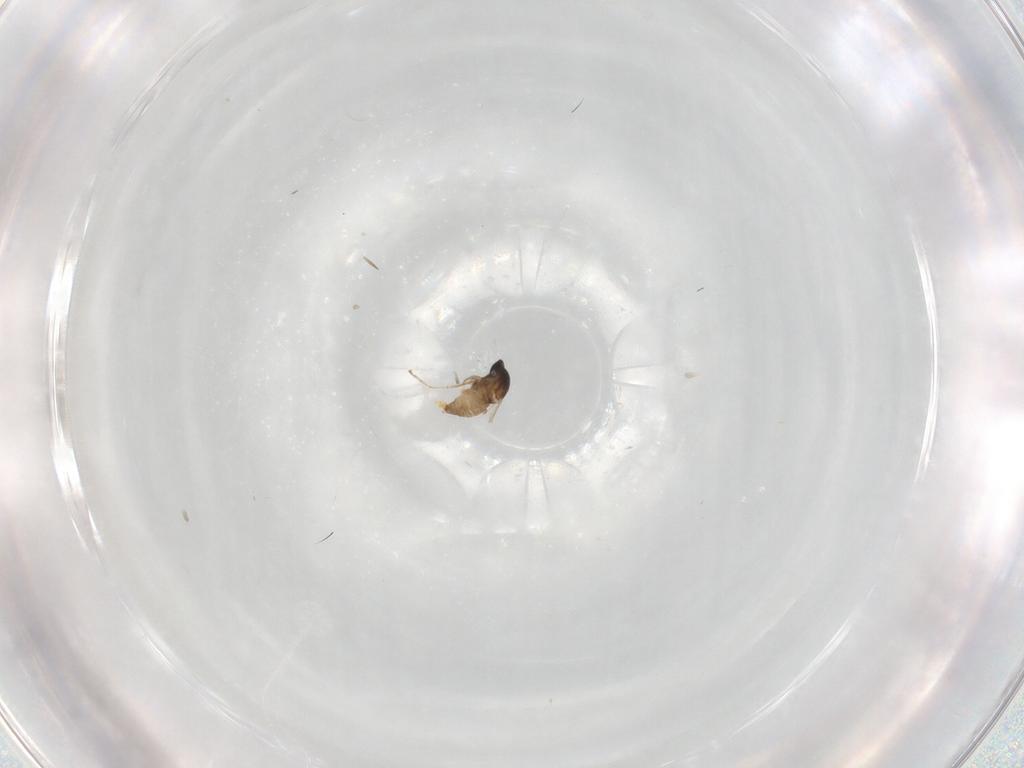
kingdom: Animalia
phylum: Arthropoda
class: Insecta
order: Diptera
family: Cecidomyiidae
